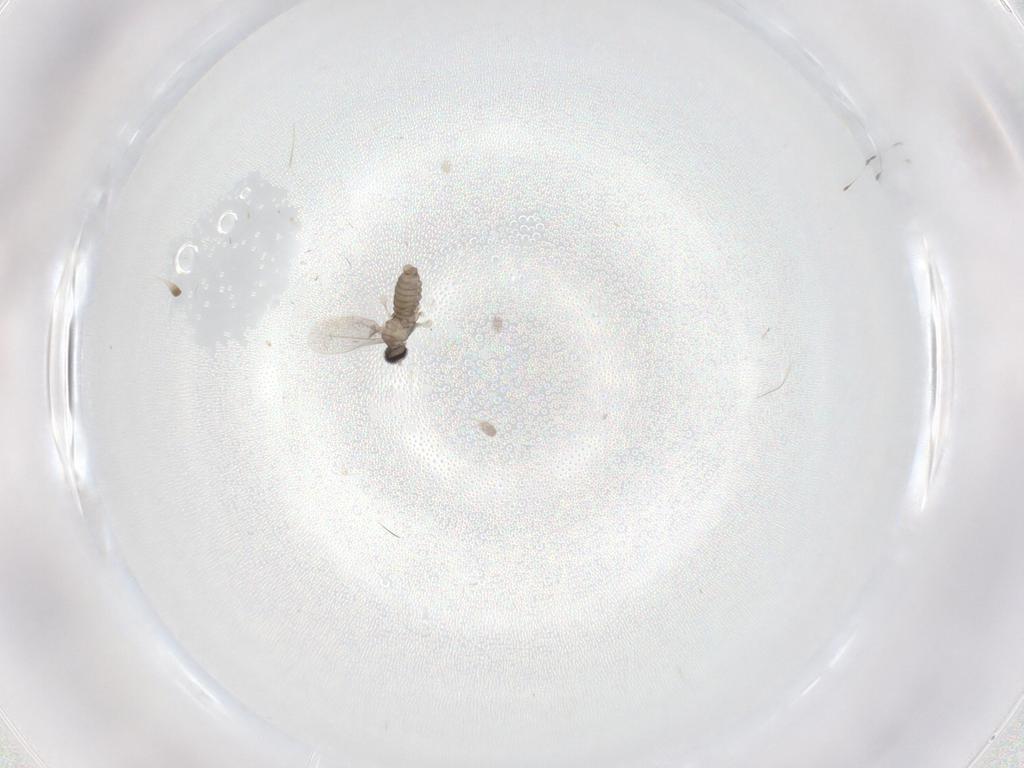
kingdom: Animalia
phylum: Arthropoda
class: Insecta
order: Diptera
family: Cecidomyiidae
